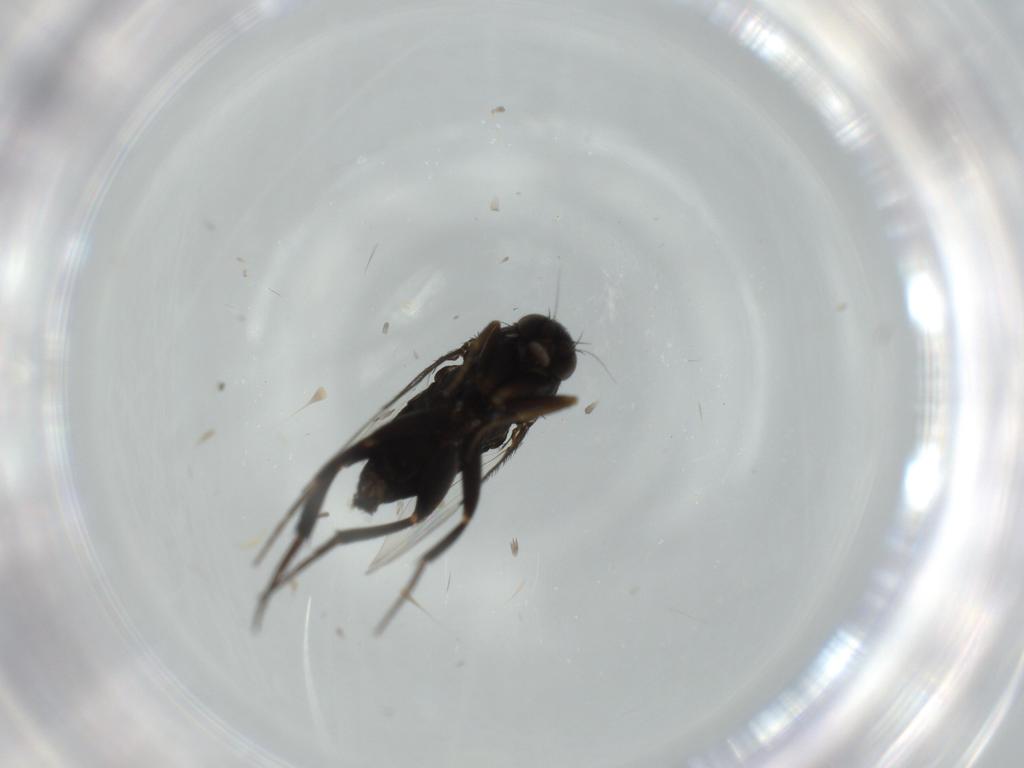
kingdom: Animalia
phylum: Arthropoda
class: Insecta
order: Diptera
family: Phoridae
